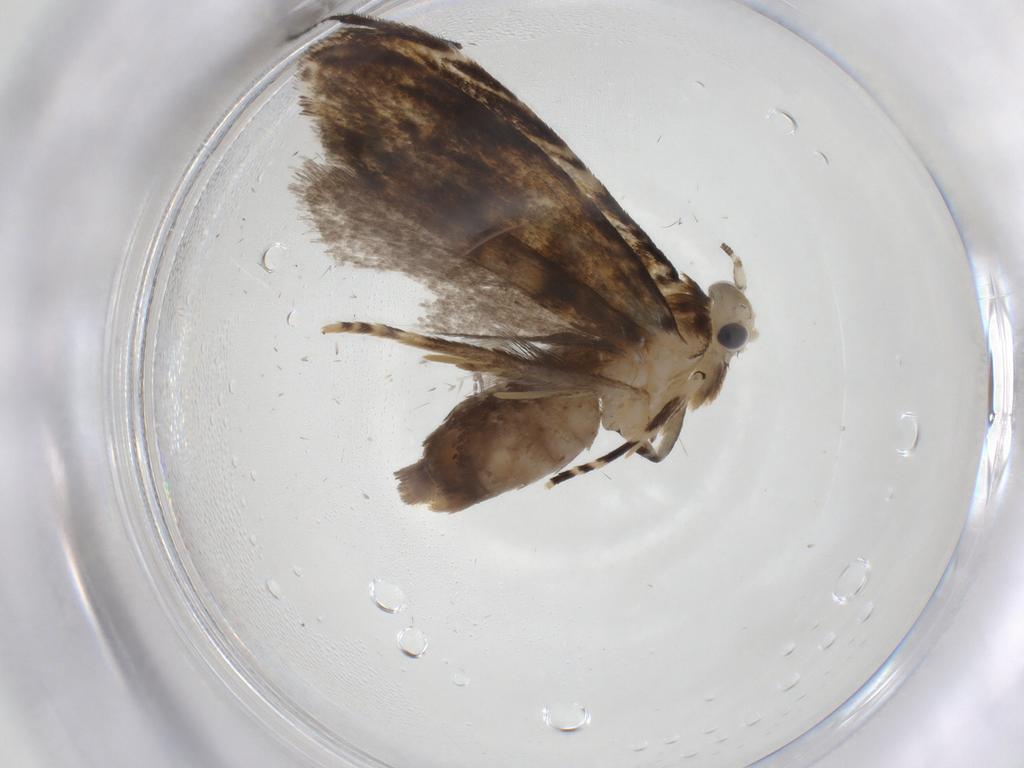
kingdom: Animalia
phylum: Arthropoda
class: Insecta
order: Lepidoptera
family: Tineidae
